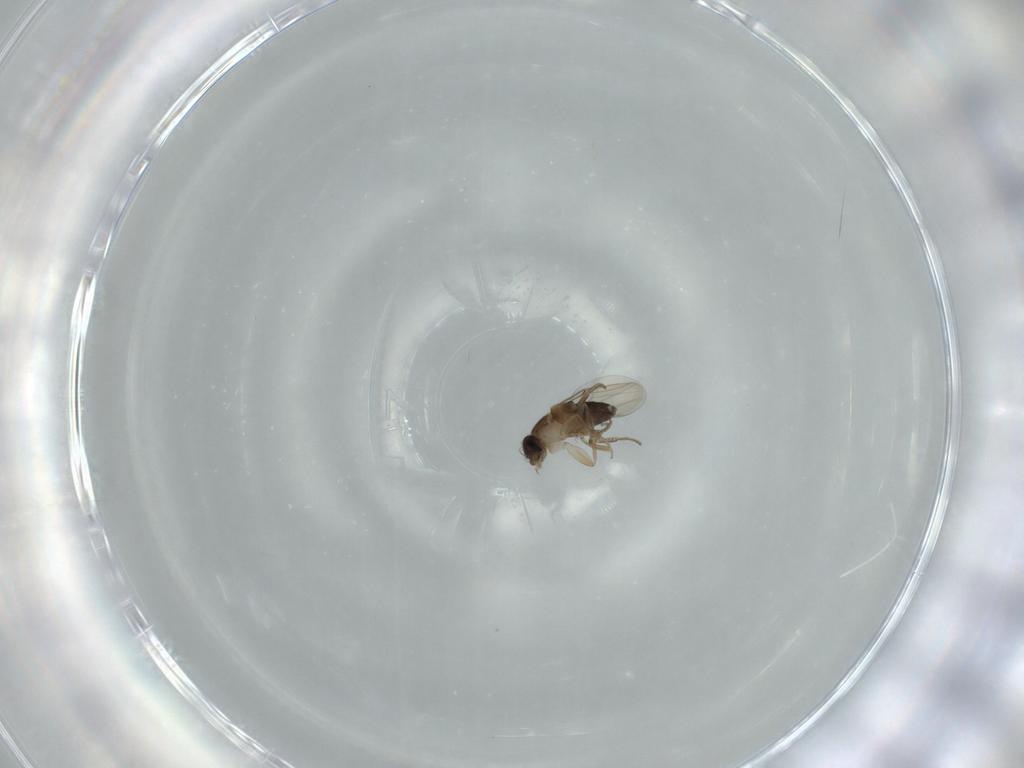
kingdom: Animalia
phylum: Arthropoda
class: Insecta
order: Diptera
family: Phoridae
